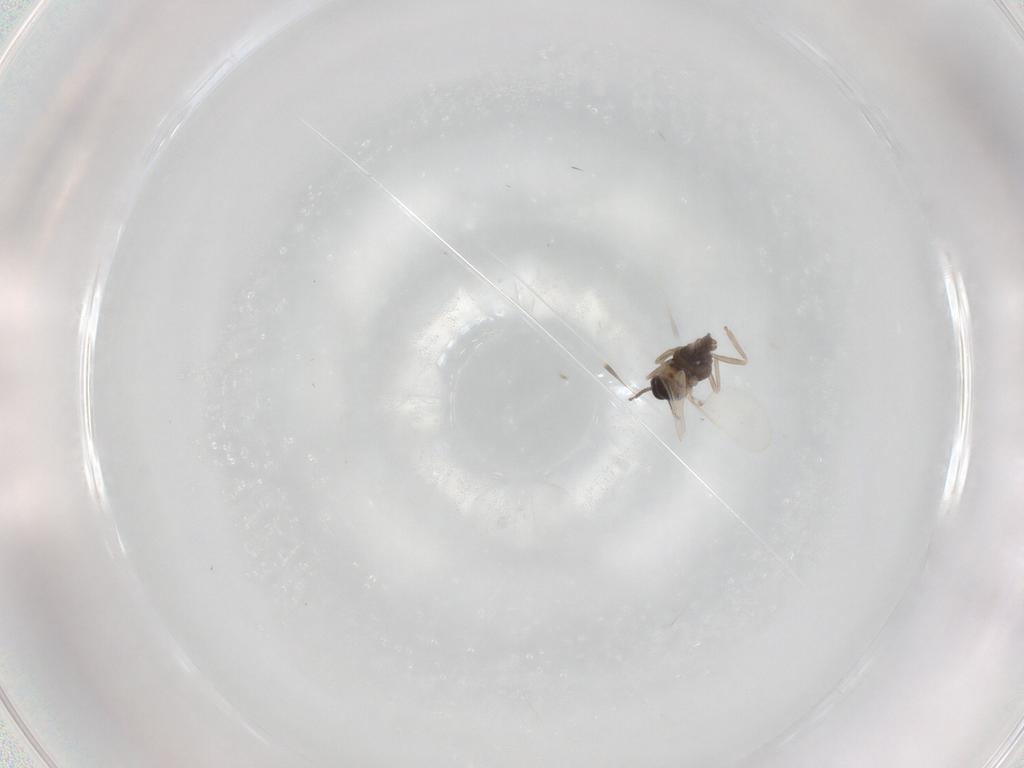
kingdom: Animalia
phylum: Arthropoda
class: Insecta
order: Diptera
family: Cecidomyiidae
